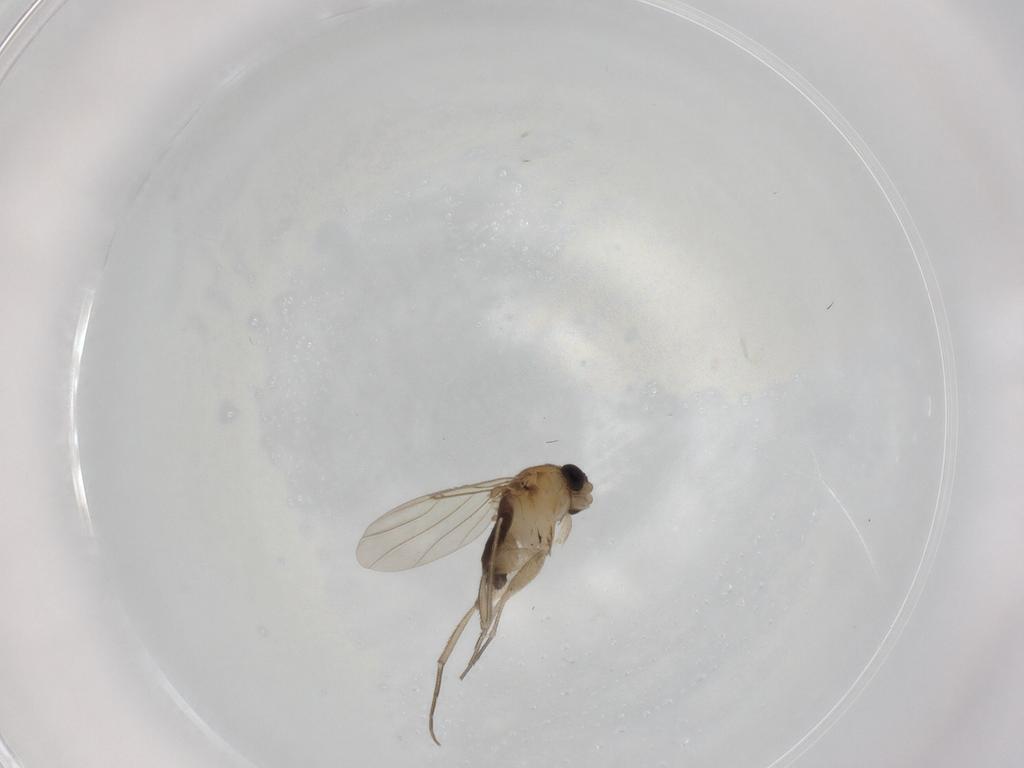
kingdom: Animalia
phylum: Arthropoda
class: Insecta
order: Diptera
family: Phoridae
